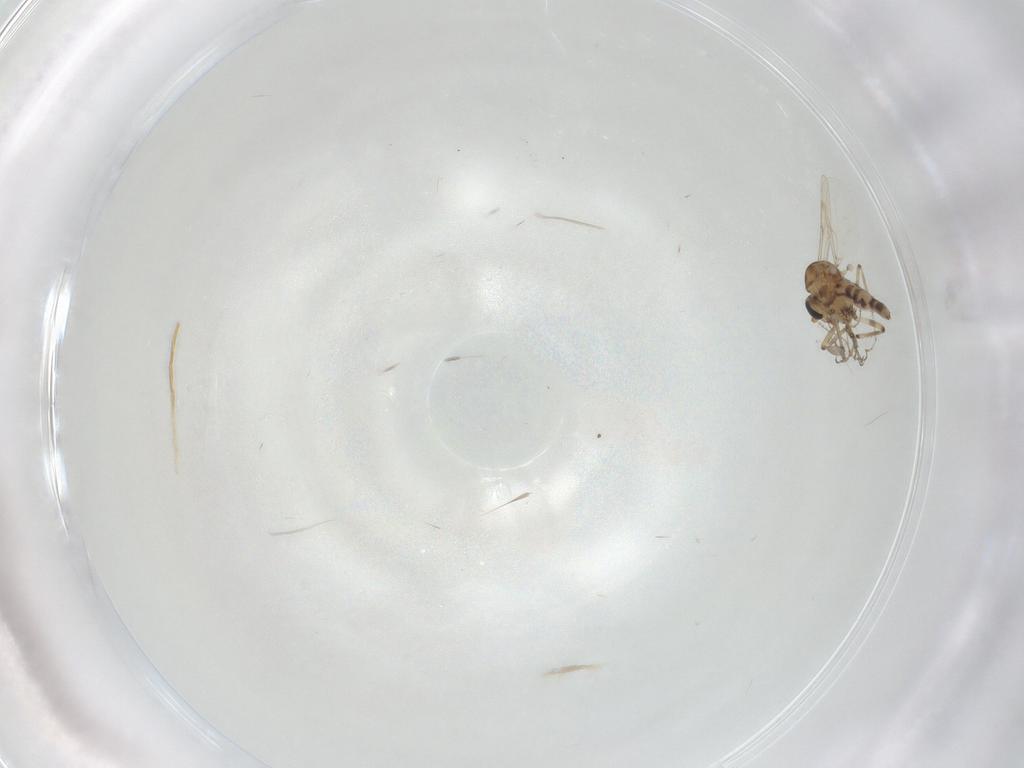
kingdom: Animalia
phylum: Arthropoda
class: Insecta
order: Diptera
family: Ceratopogonidae
